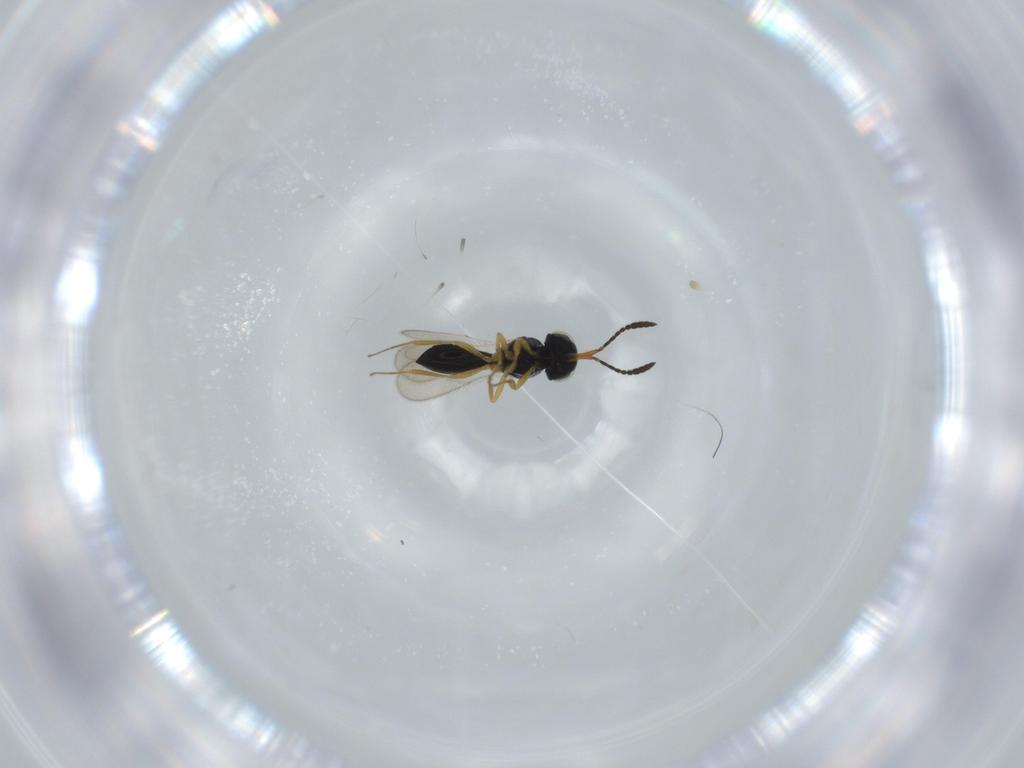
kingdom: Animalia
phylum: Arthropoda
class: Insecta
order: Hymenoptera
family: Scelionidae
